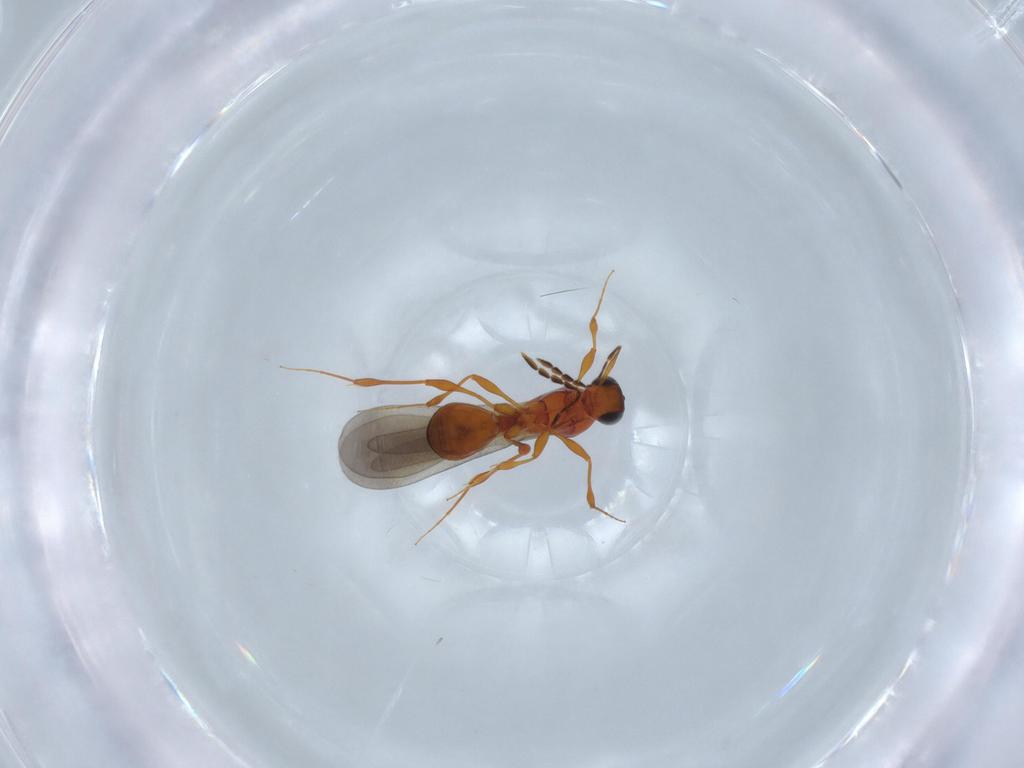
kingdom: Animalia
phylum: Arthropoda
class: Insecta
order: Hymenoptera
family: Platygastridae
